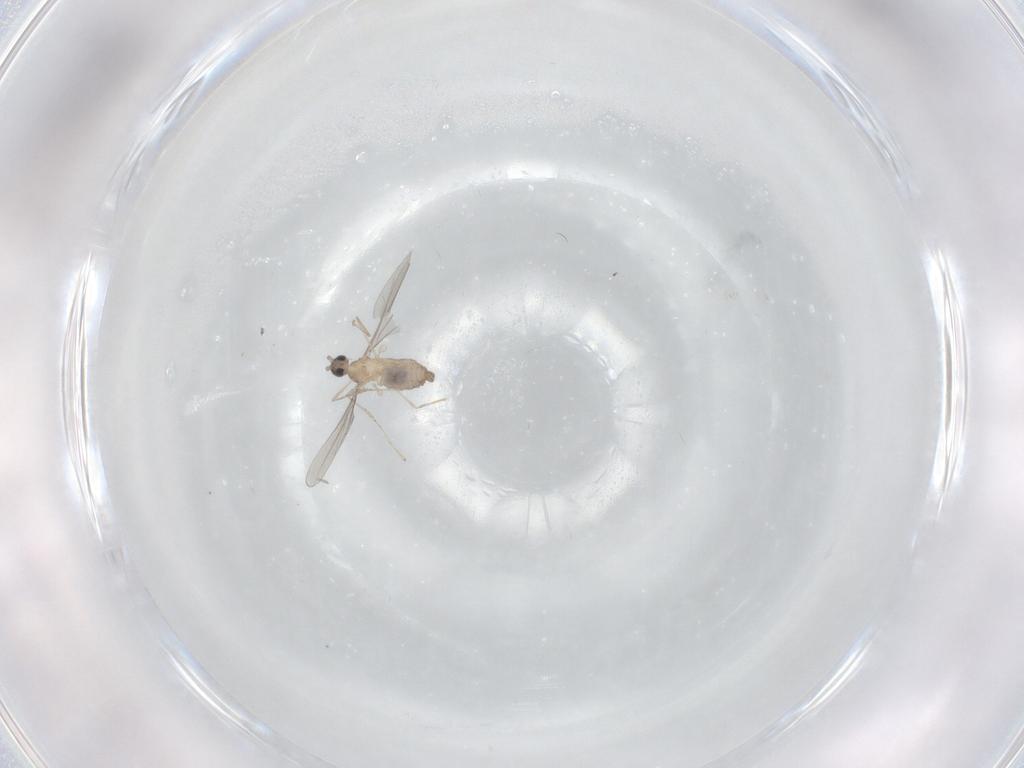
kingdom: Animalia
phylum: Arthropoda
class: Insecta
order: Diptera
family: Cecidomyiidae
